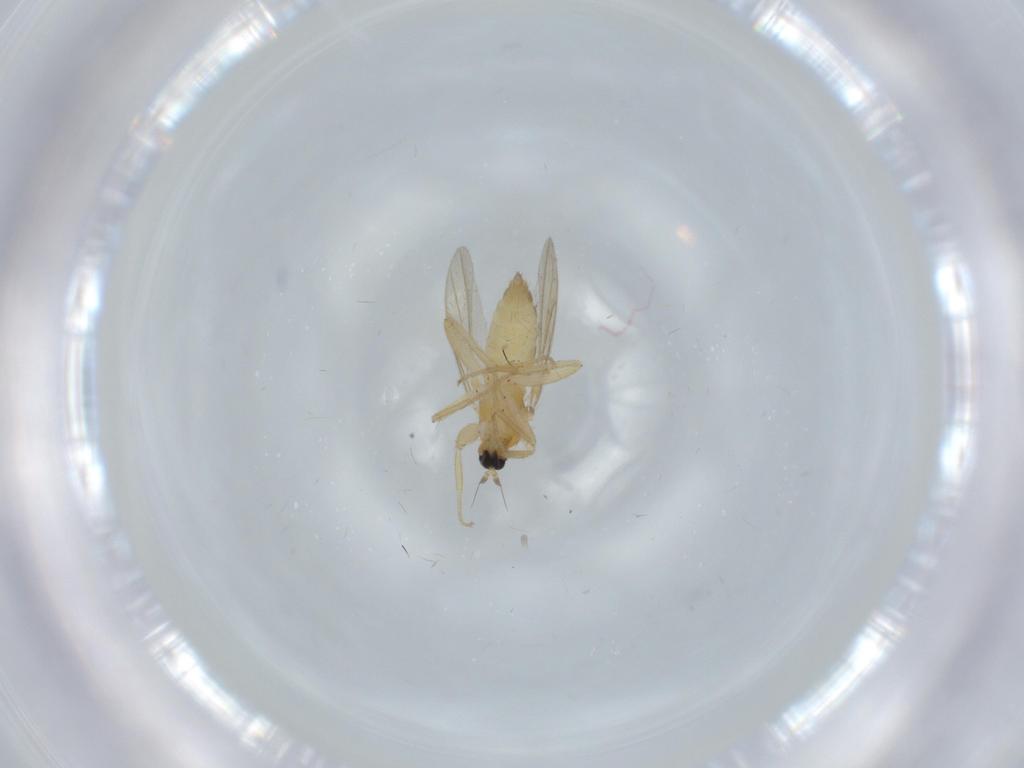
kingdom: Animalia
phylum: Arthropoda
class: Insecta
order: Diptera
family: Hybotidae
